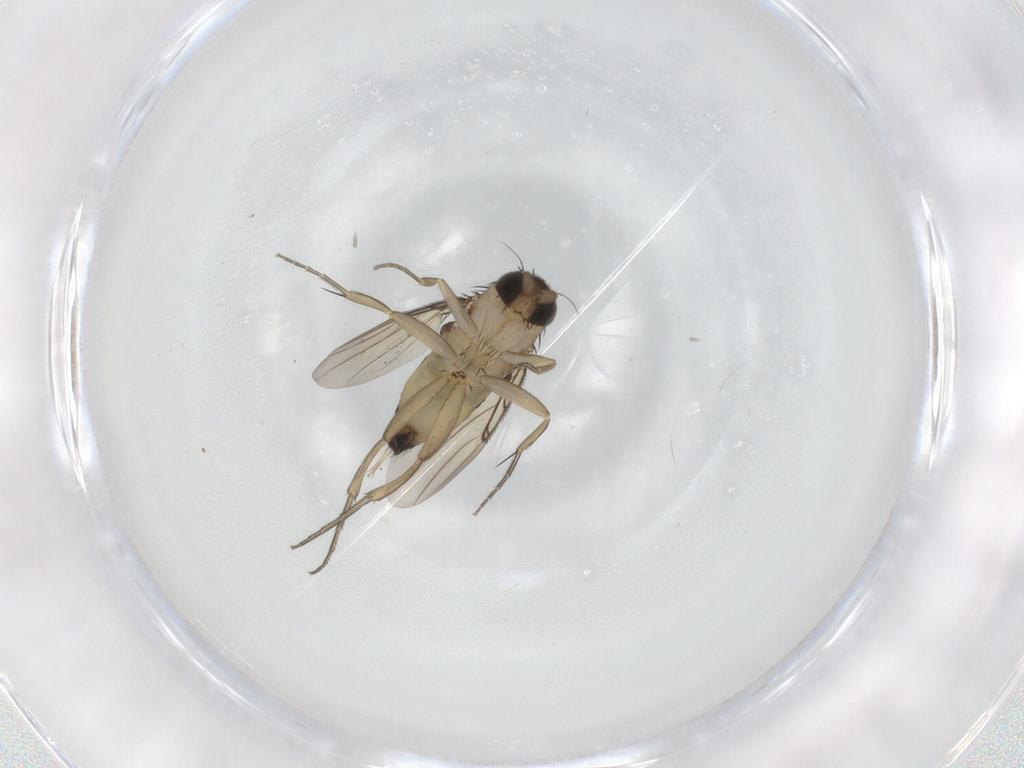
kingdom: Animalia
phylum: Arthropoda
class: Insecta
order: Diptera
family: Phoridae
